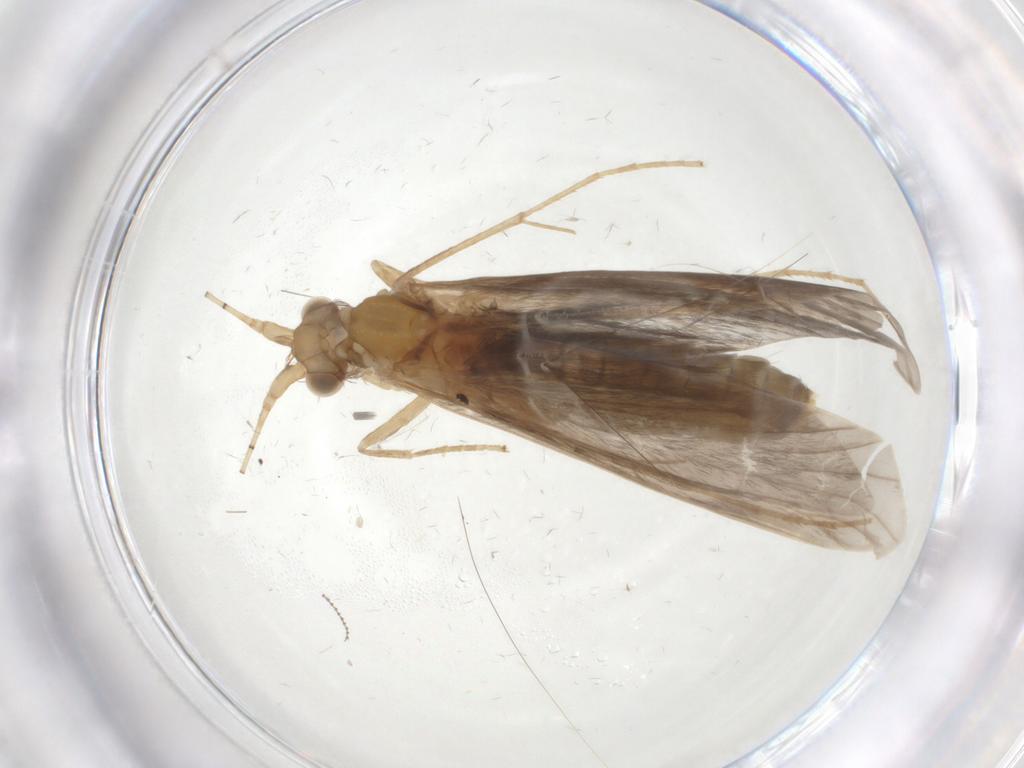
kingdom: Animalia
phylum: Arthropoda
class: Insecta
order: Trichoptera
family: Leptoceridae
